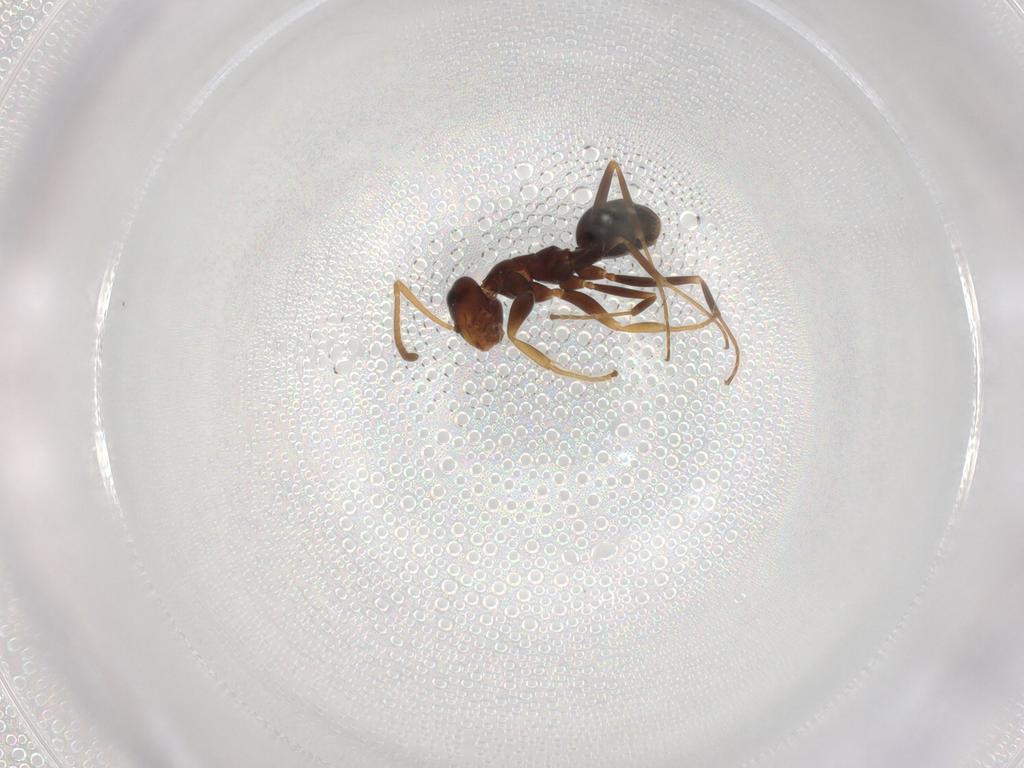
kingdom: Animalia
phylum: Arthropoda
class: Insecta
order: Hymenoptera
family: Formicidae
